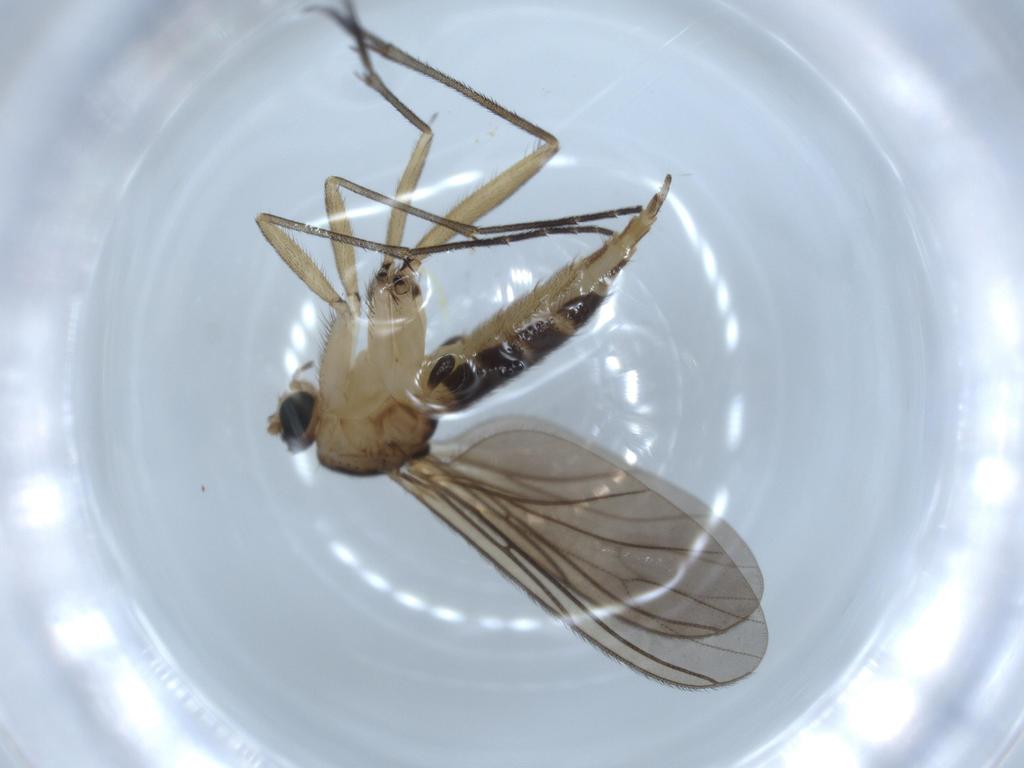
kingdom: Animalia
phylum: Arthropoda
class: Insecta
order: Diptera
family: Sciaridae
